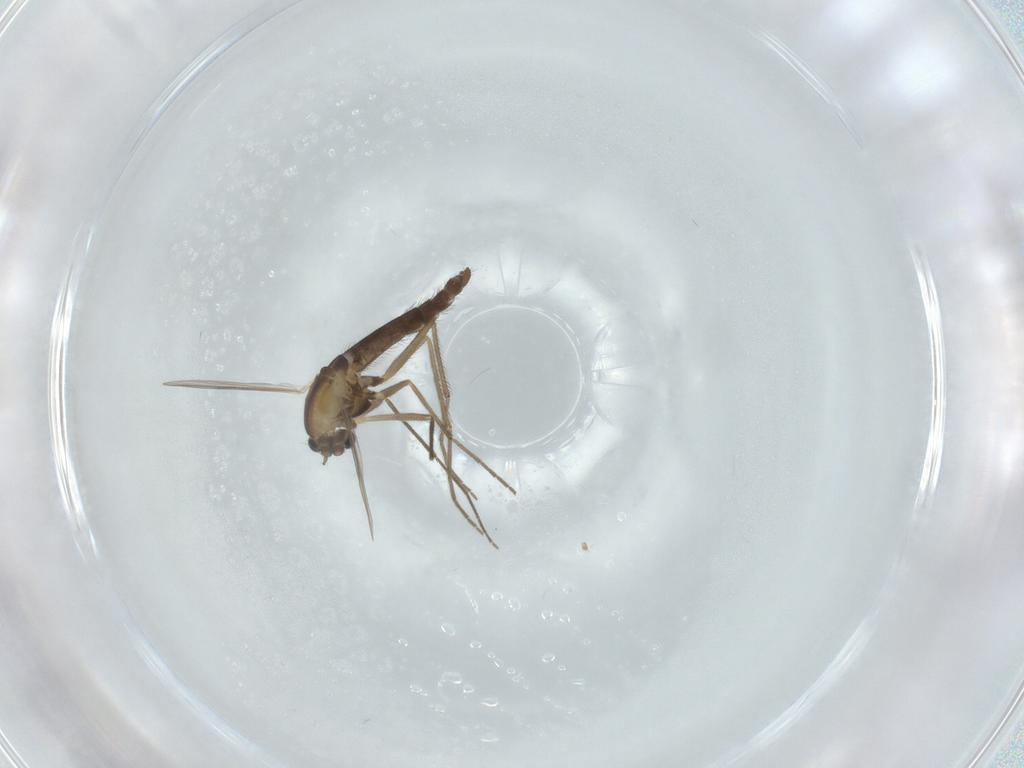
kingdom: Animalia
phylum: Arthropoda
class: Insecta
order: Diptera
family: Chironomidae
